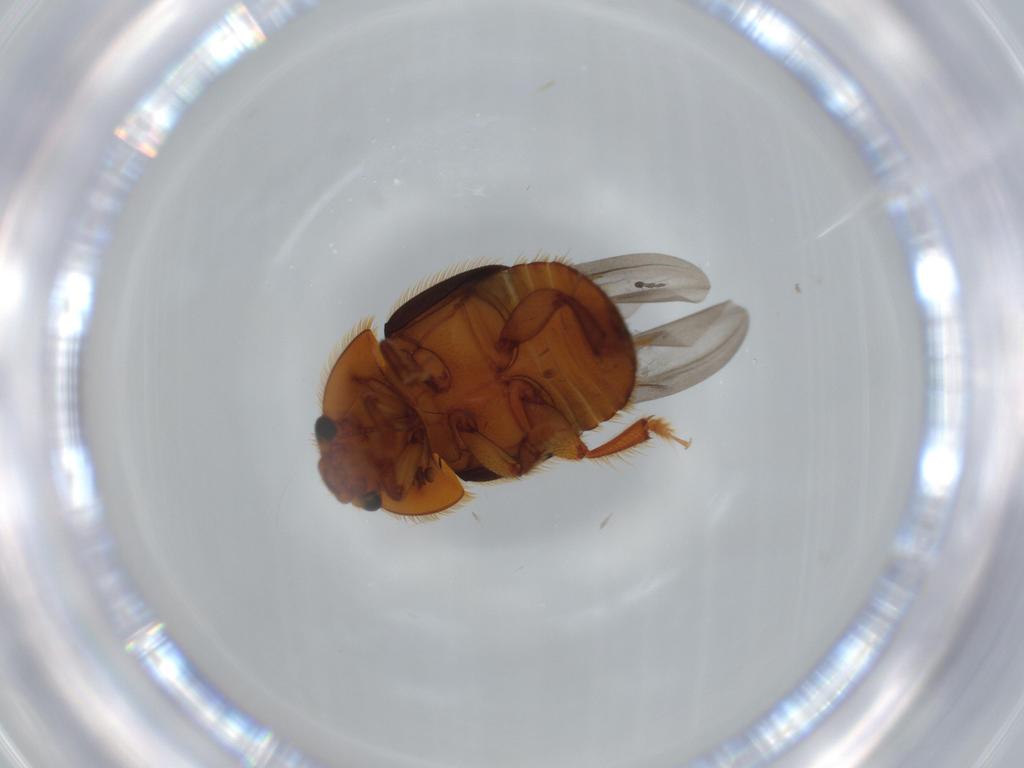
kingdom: Animalia
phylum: Arthropoda
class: Insecta
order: Coleoptera
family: Nitidulidae
